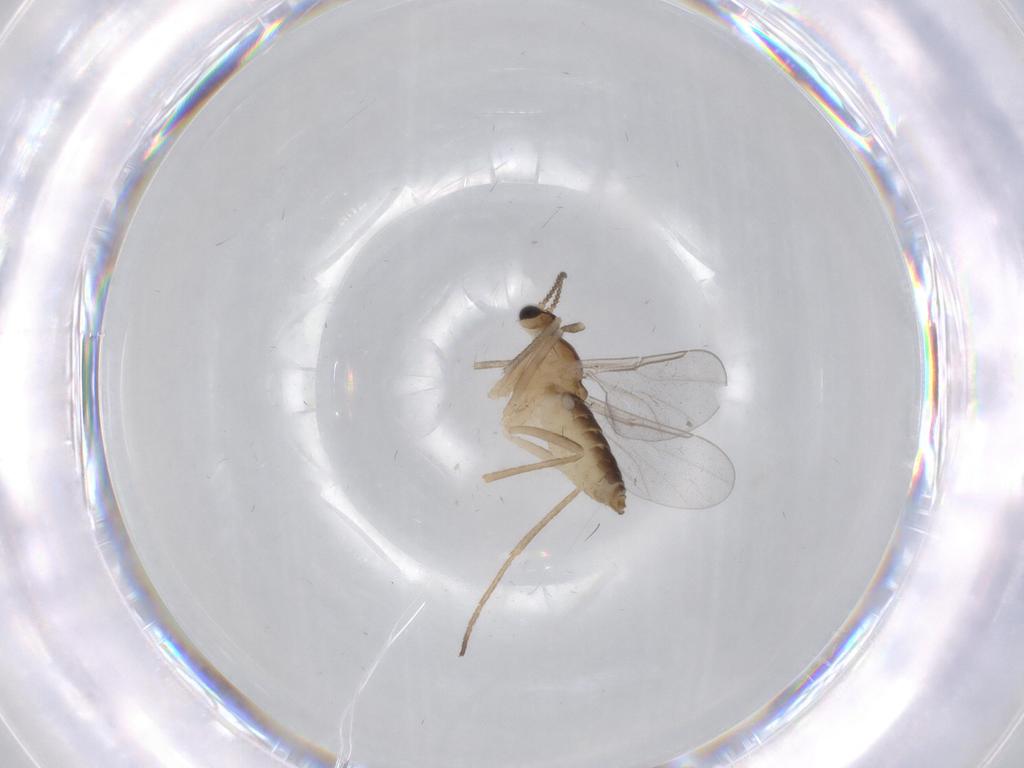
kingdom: Animalia
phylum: Arthropoda
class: Insecta
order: Diptera
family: Cecidomyiidae
